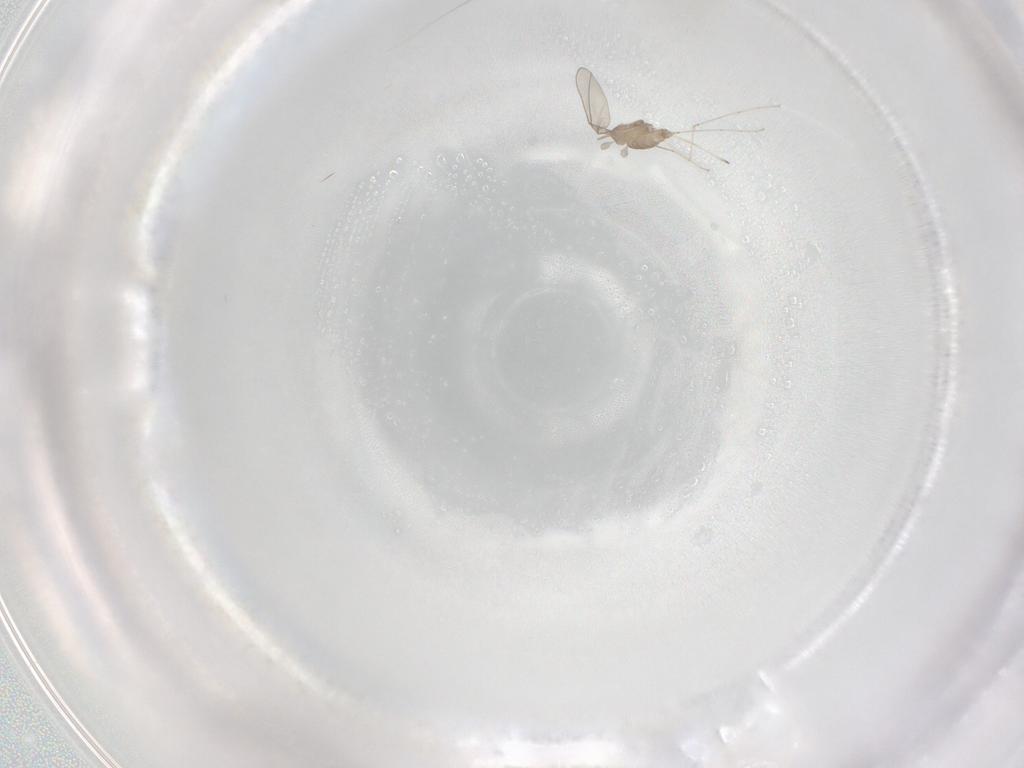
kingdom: Animalia
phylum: Arthropoda
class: Insecta
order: Diptera
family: Cecidomyiidae
